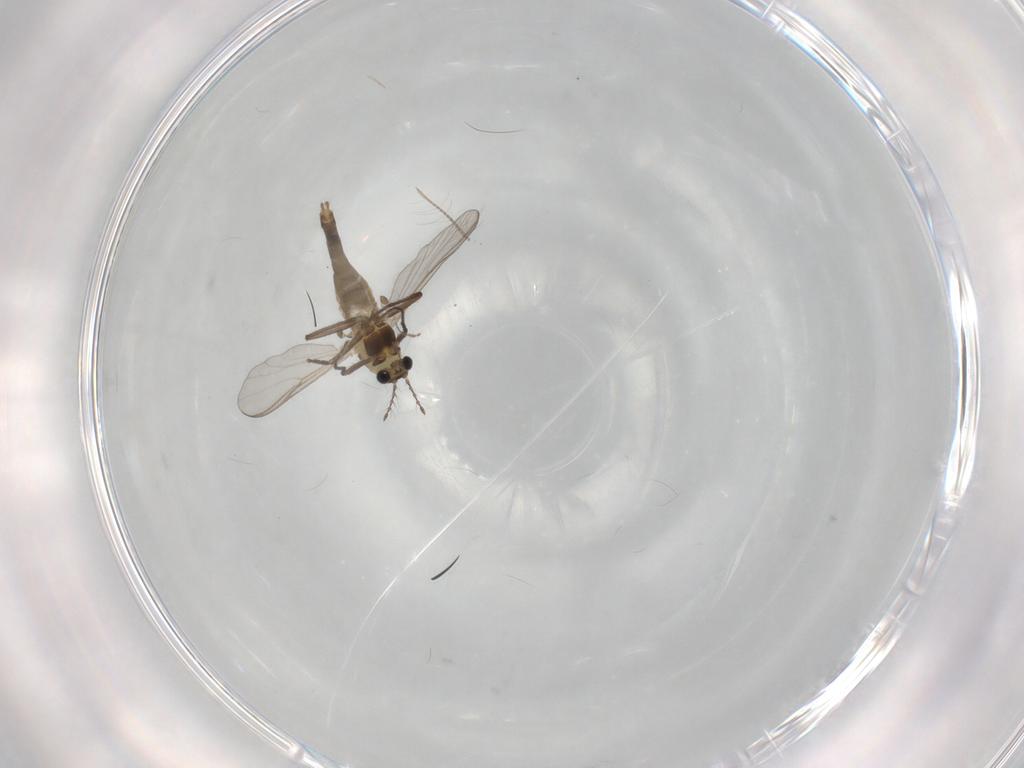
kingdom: Animalia
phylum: Arthropoda
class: Insecta
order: Diptera
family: Chironomidae
